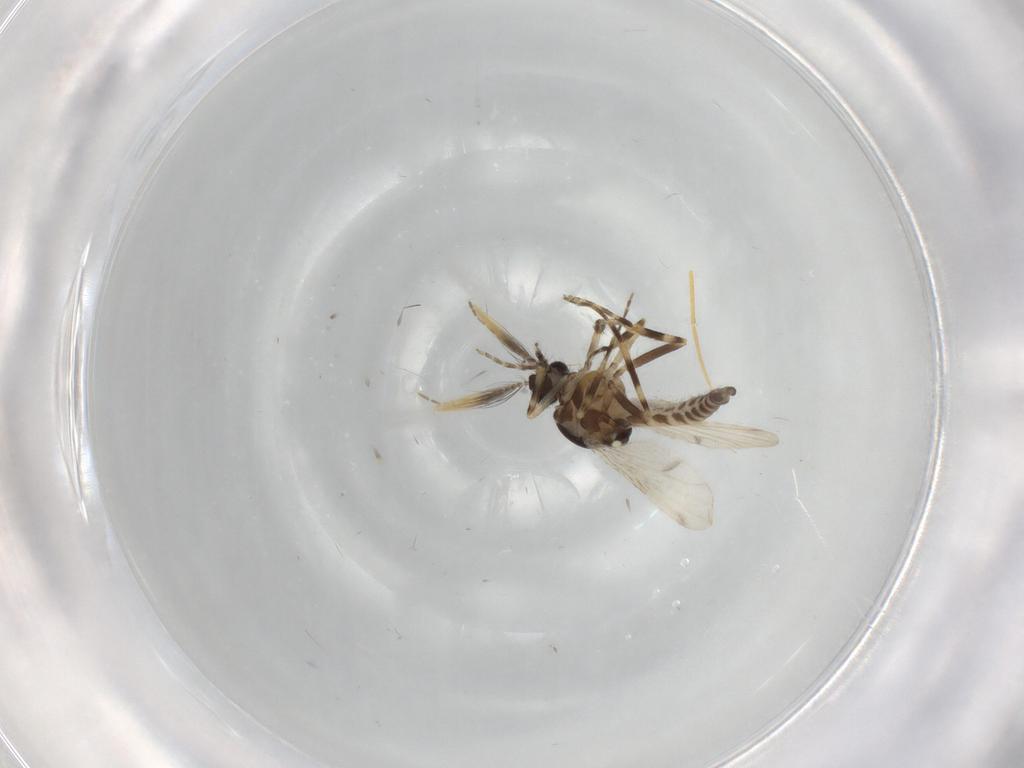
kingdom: Animalia
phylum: Arthropoda
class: Insecta
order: Diptera
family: Ceratopogonidae
